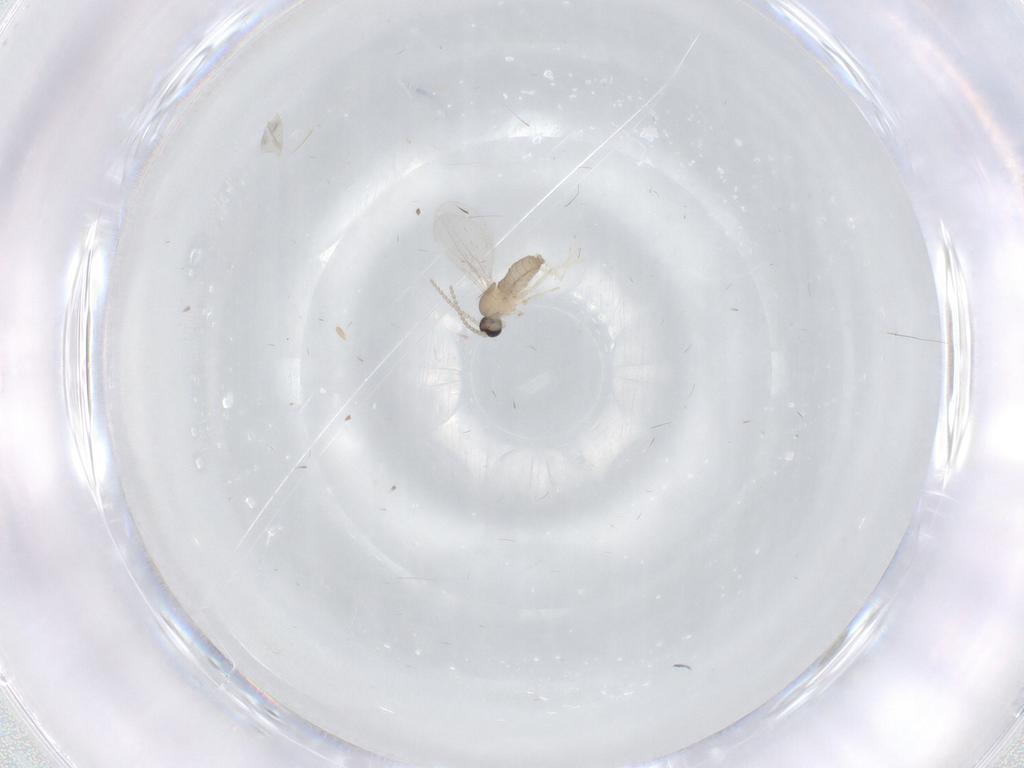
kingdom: Animalia
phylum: Arthropoda
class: Insecta
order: Diptera
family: Cecidomyiidae
